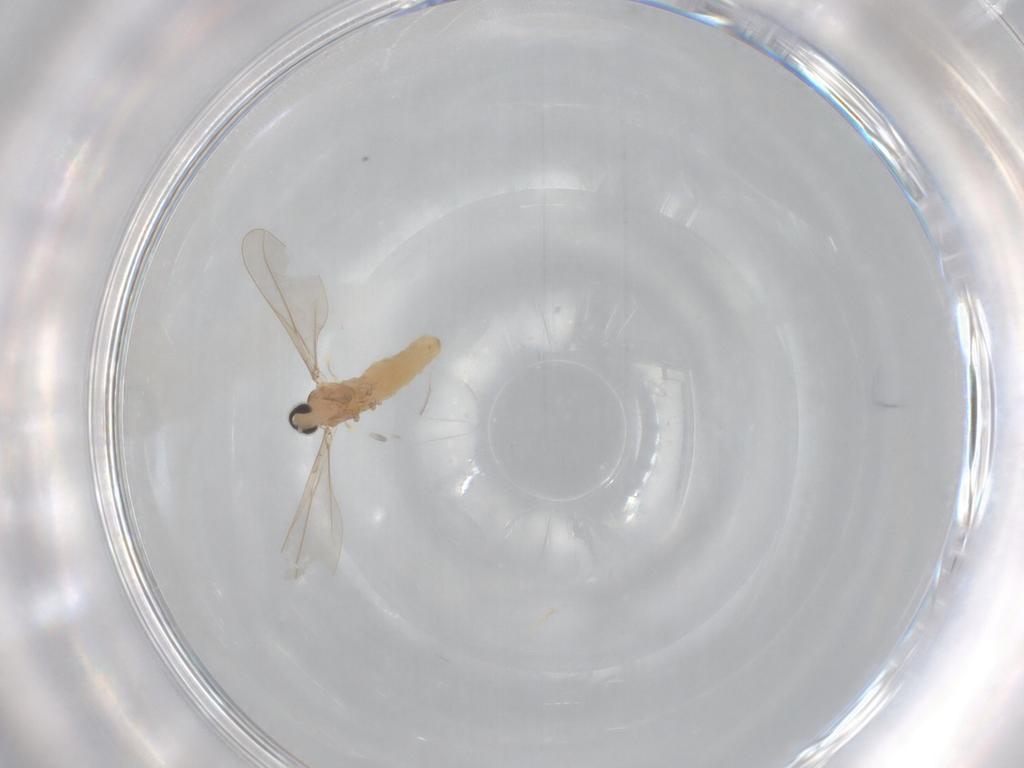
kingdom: Animalia
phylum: Arthropoda
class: Insecta
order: Diptera
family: Cecidomyiidae
